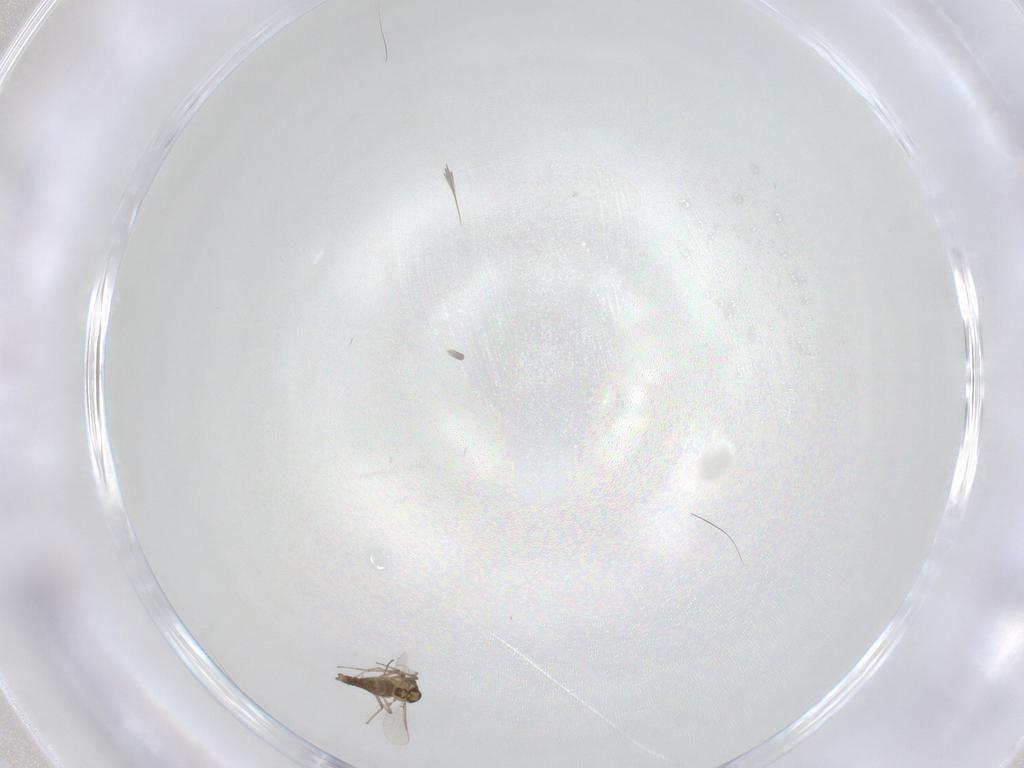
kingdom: Animalia
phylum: Arthropoda
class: Insecta
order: Diptera
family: Chironomidae
